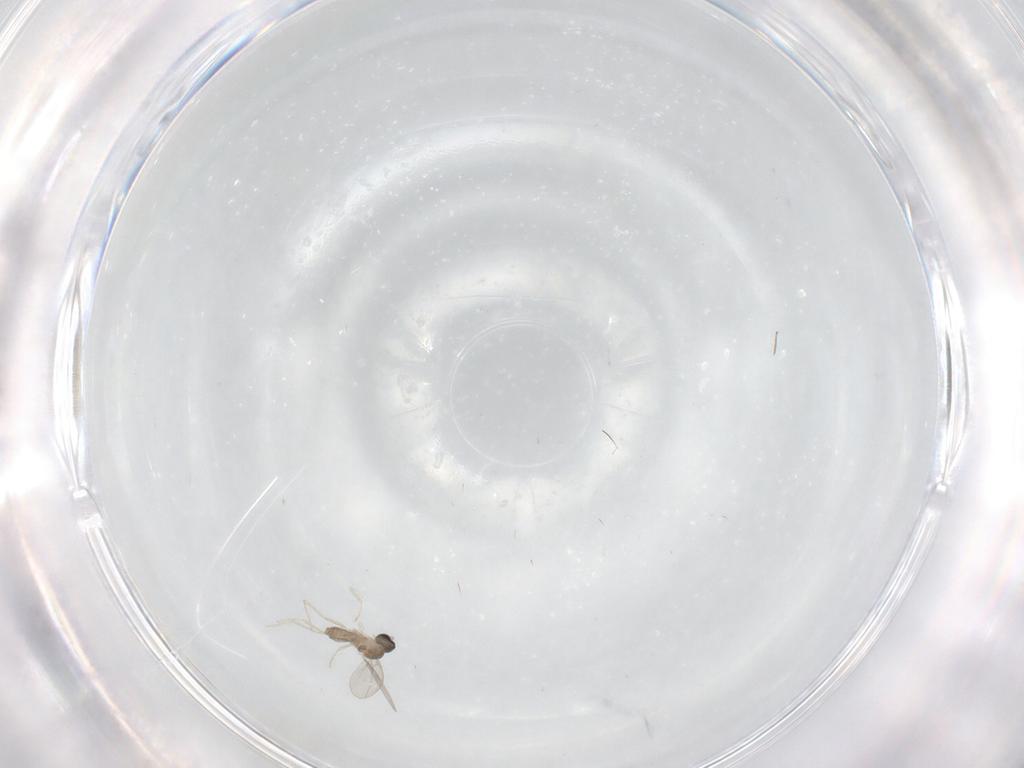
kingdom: Animalia
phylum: Arthropoda
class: Insecta
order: Diptera
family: Cecidomyiidae
